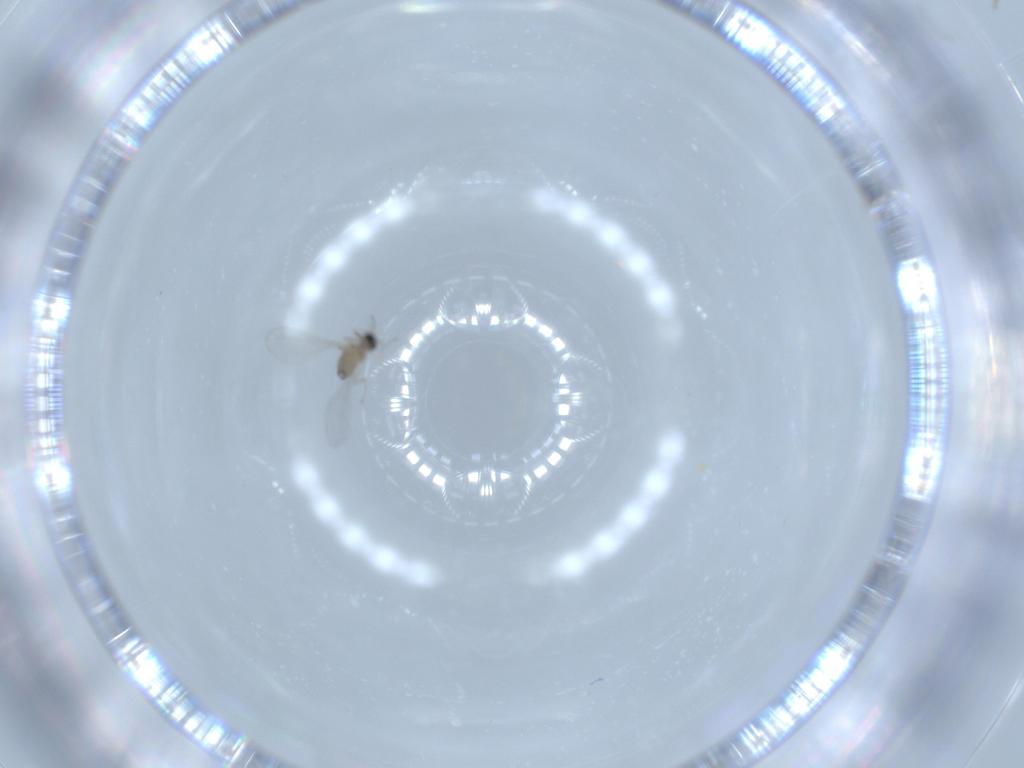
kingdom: Animalia
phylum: Arthropoda
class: Insecta
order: Diptera
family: Cecidomyiidae
